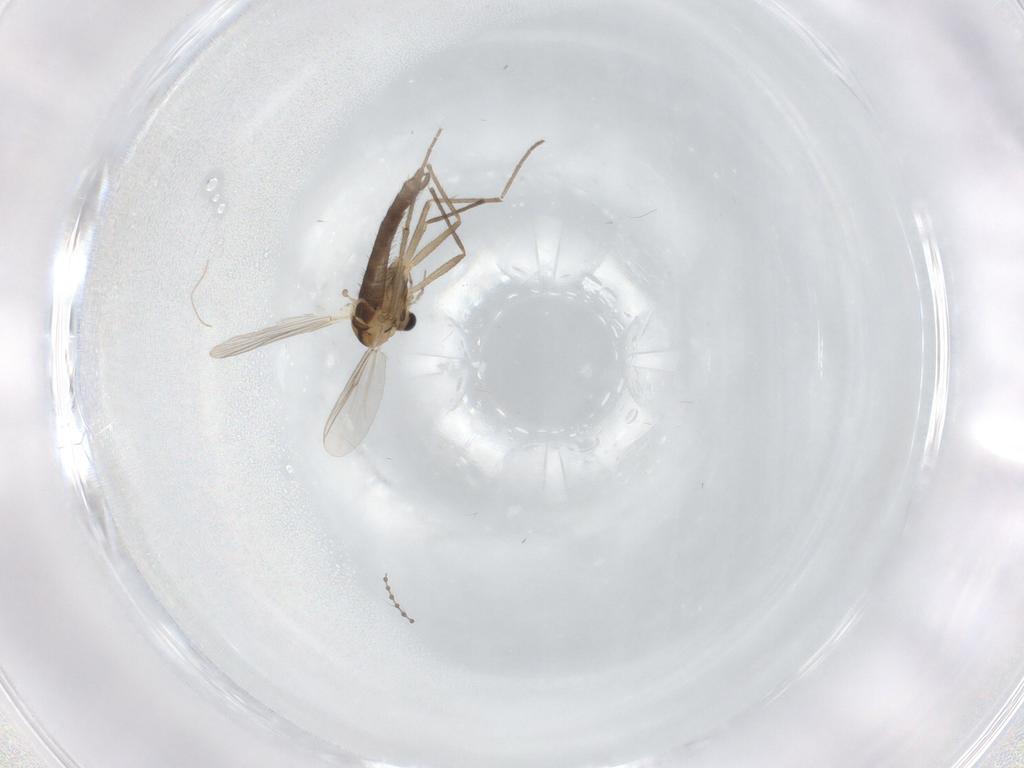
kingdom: Animalia
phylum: Arthropoda
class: Insecta
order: Diptera
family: Chironomidae
